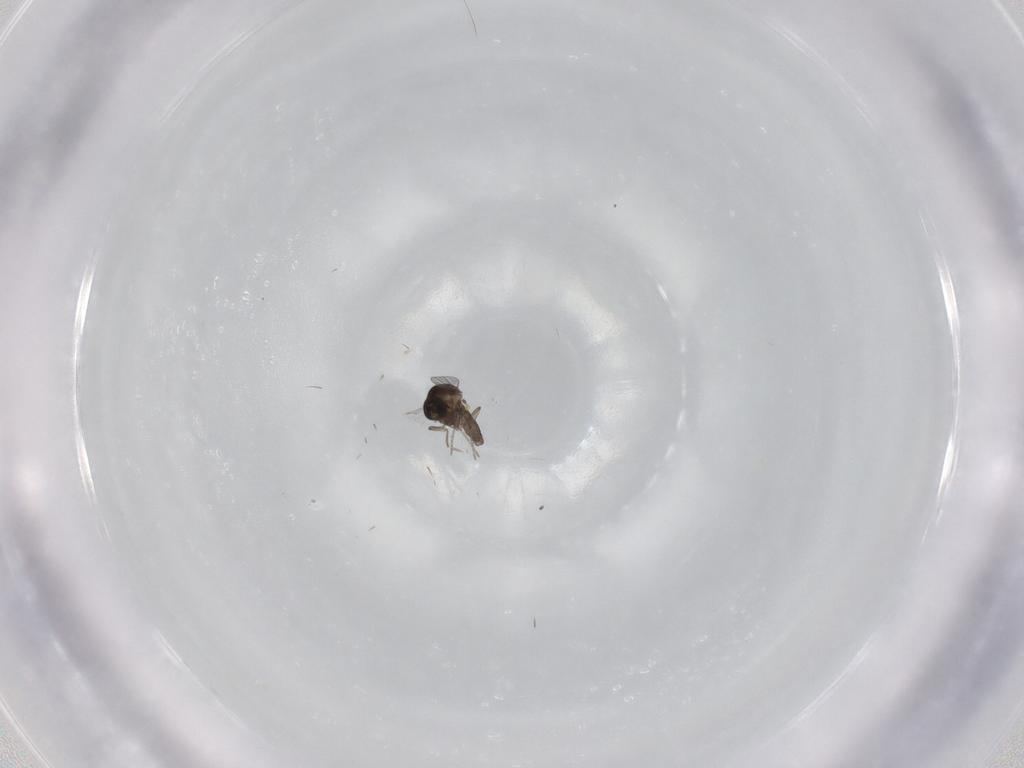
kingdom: Animalia
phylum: Arthropoda
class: Insecta
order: Diptera
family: Ceratopogonidae
